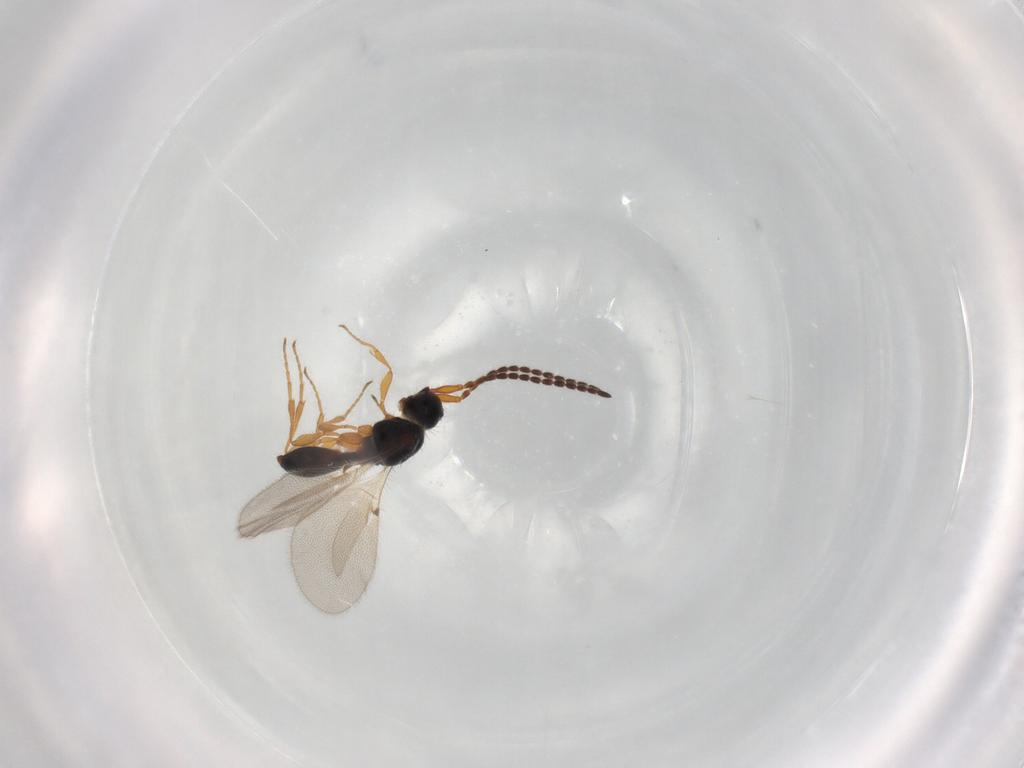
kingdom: Animalia
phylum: Arthropoda
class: Insecta
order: Hymenoptera
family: Diapriidae
